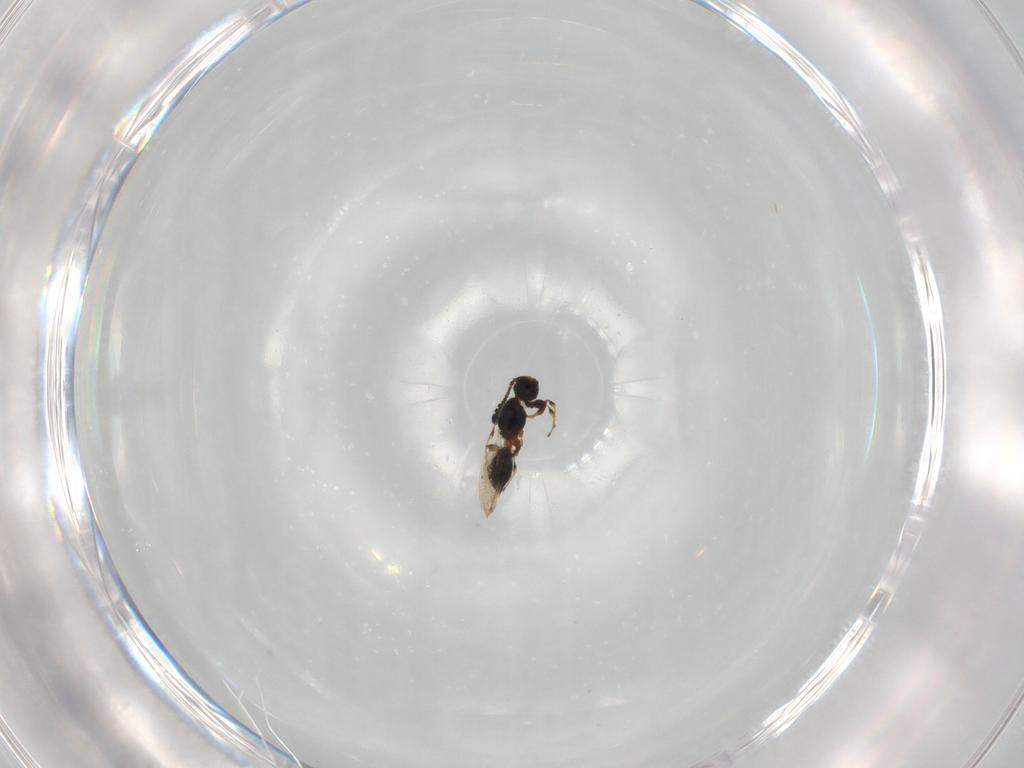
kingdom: Animalia
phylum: Arthropoda
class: Insecta
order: Hymenoptera
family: Diapriidae
